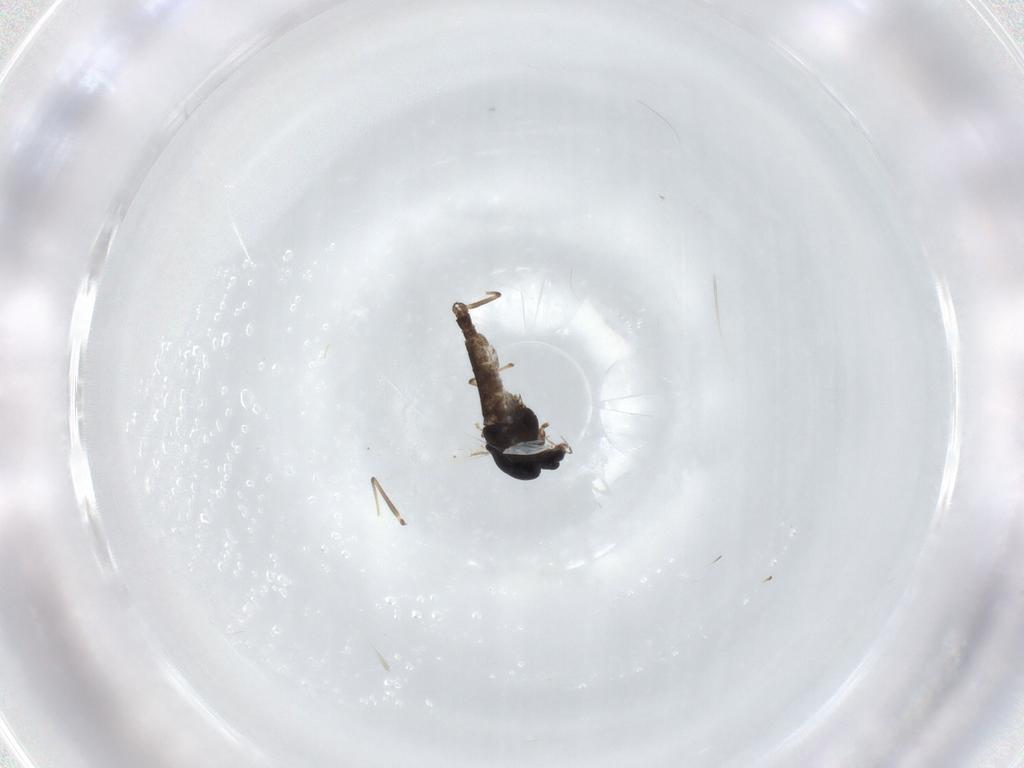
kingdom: Animalia
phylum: Arthropoda
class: Insecta
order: Diptera
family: Chironomidae
